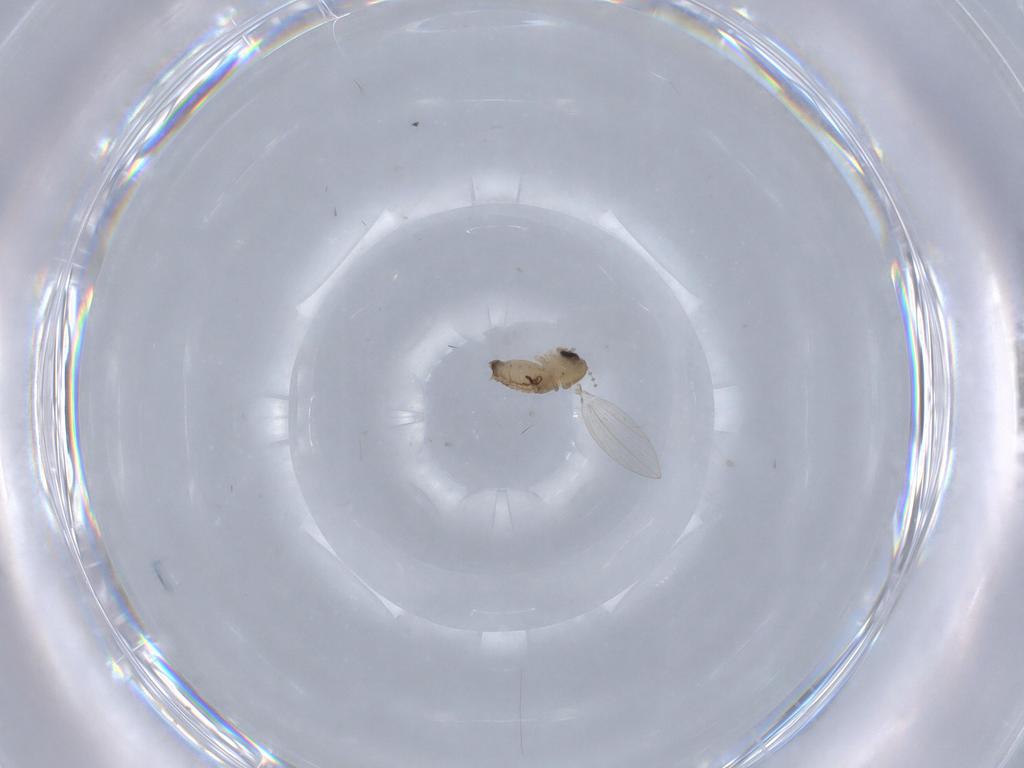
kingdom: Animalia
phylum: Arthropoda
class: Insecta
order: Diptera
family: Psychodidae
